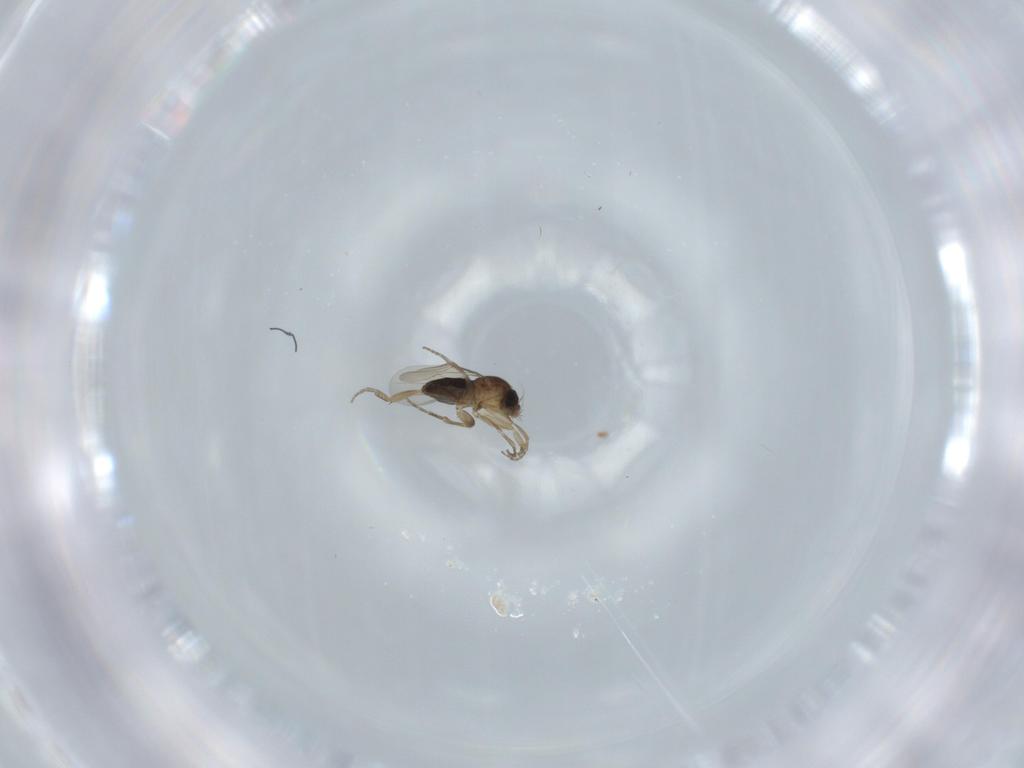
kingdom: Animalia
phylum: Arthropoda
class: Insecta
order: Diptera
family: Phoridae
